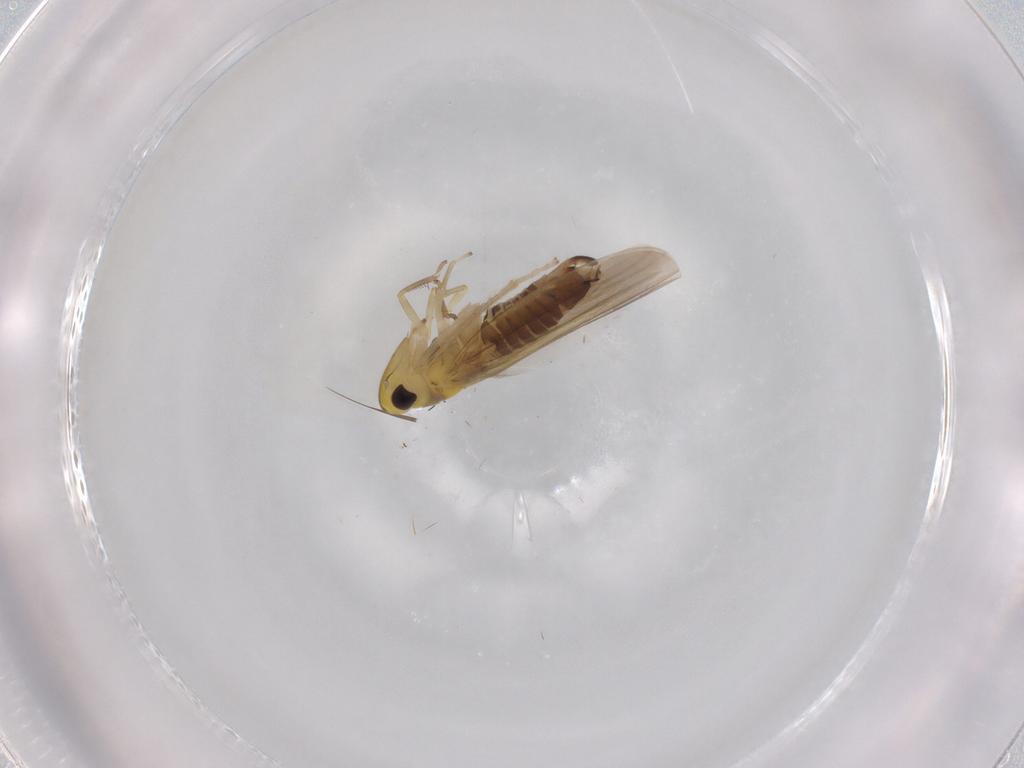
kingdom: Animalia
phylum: Arthropoda
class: Insecta
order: Hemiptera
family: Cicadellidae
